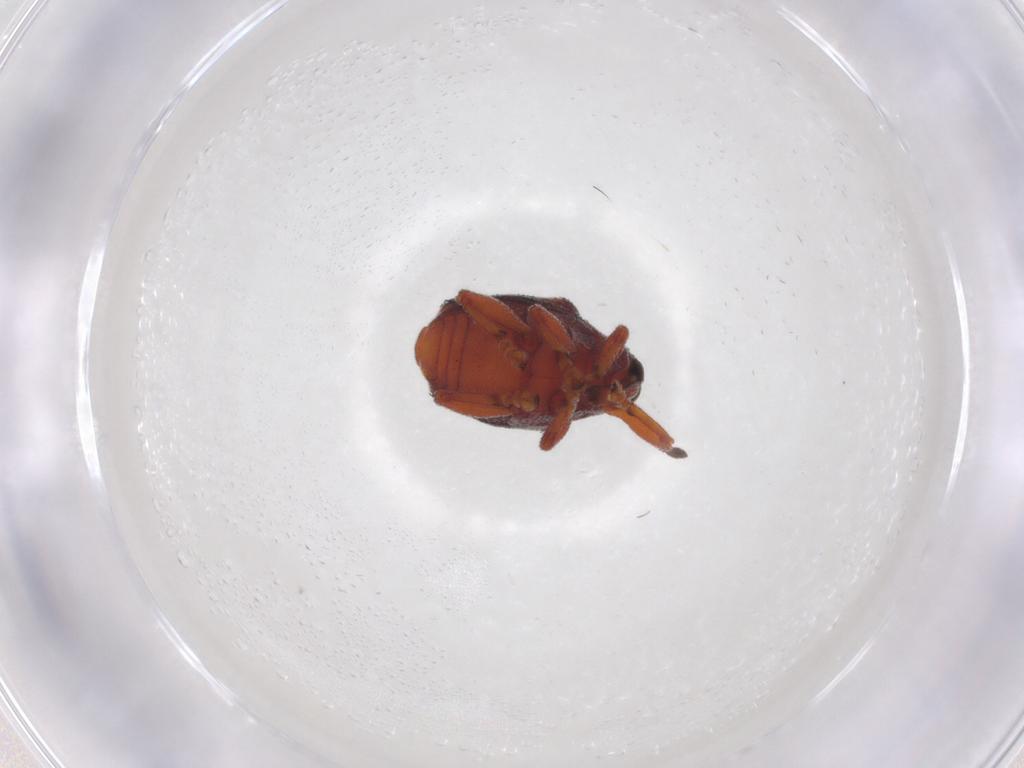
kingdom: Animalia
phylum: Arthropoda
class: Insecta
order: Coleoptera
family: Curculionidae
